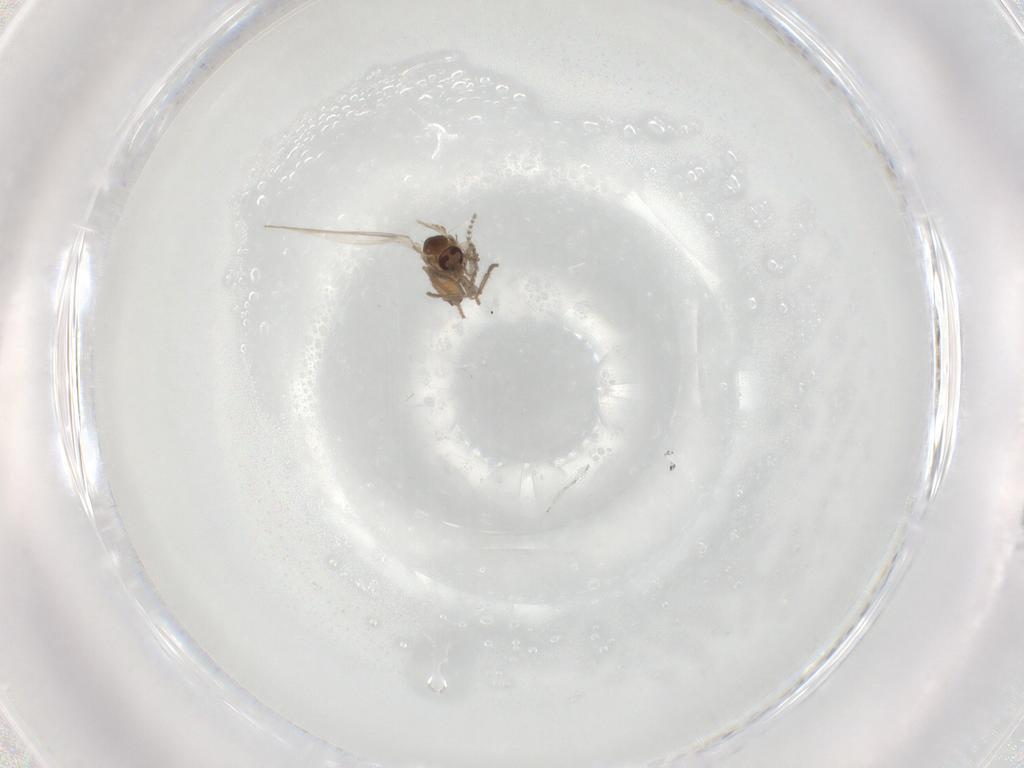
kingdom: Animalia
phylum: Arthropoda
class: Insecta
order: Diptera
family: Psychodidae
